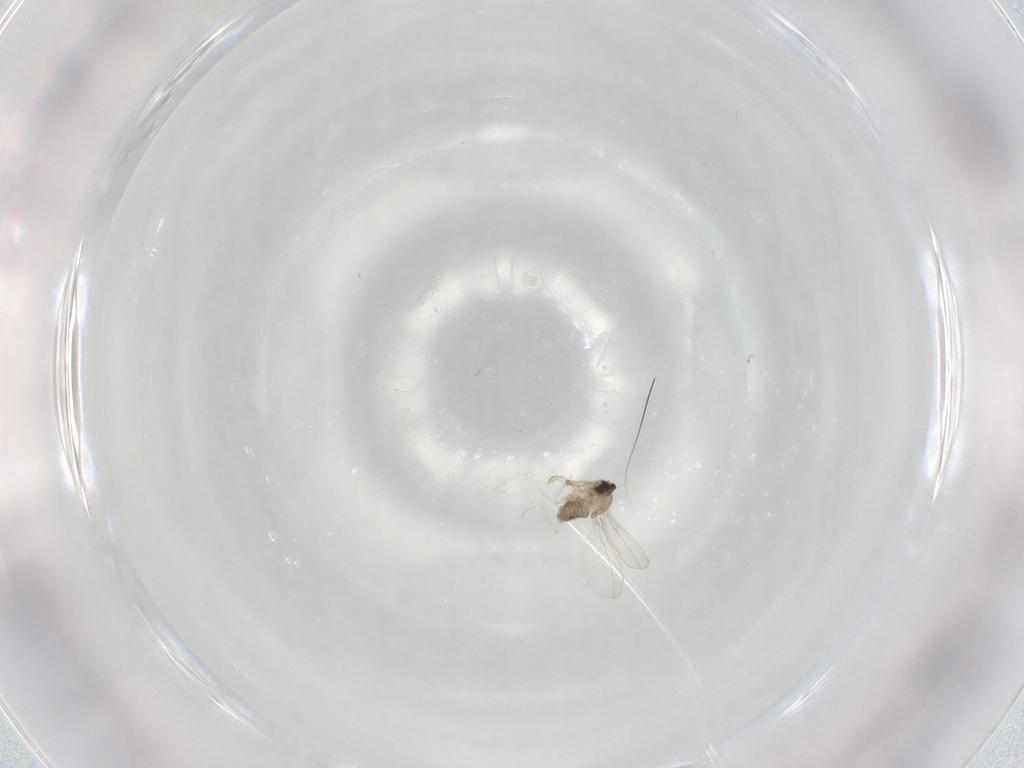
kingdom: Animalia
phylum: Arthropoda
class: Insecta
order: Diptera
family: Cecidomyiidae
